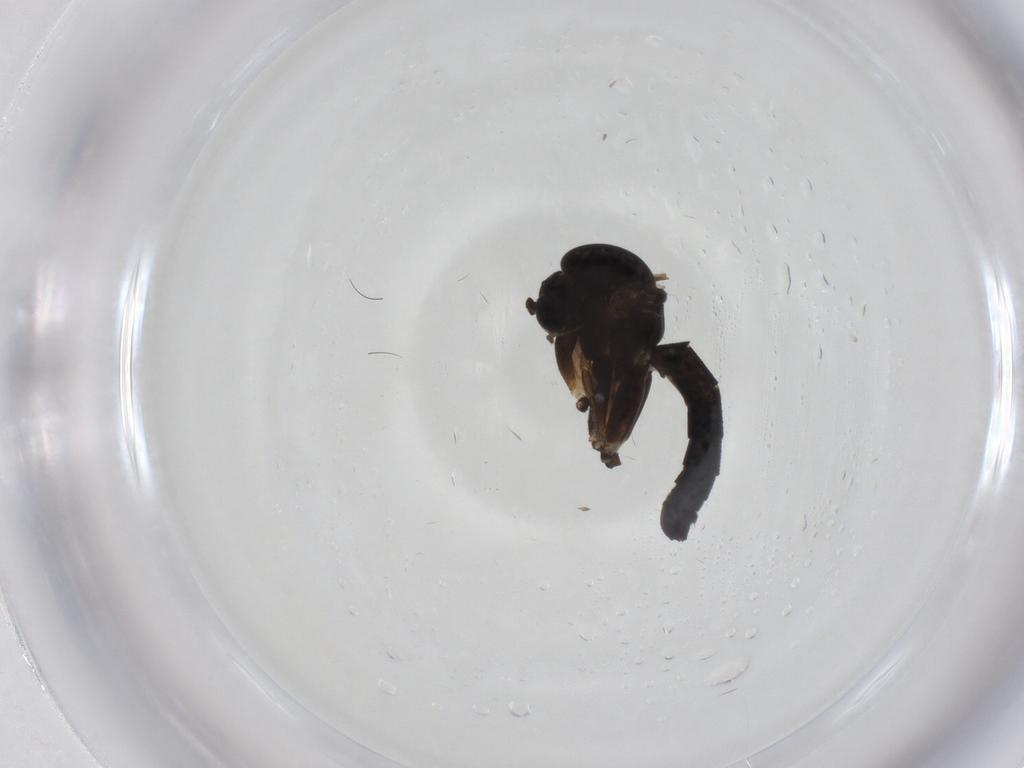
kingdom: Animalia
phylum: Arthropoda
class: Insecta
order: Diptera
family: Phoridae
